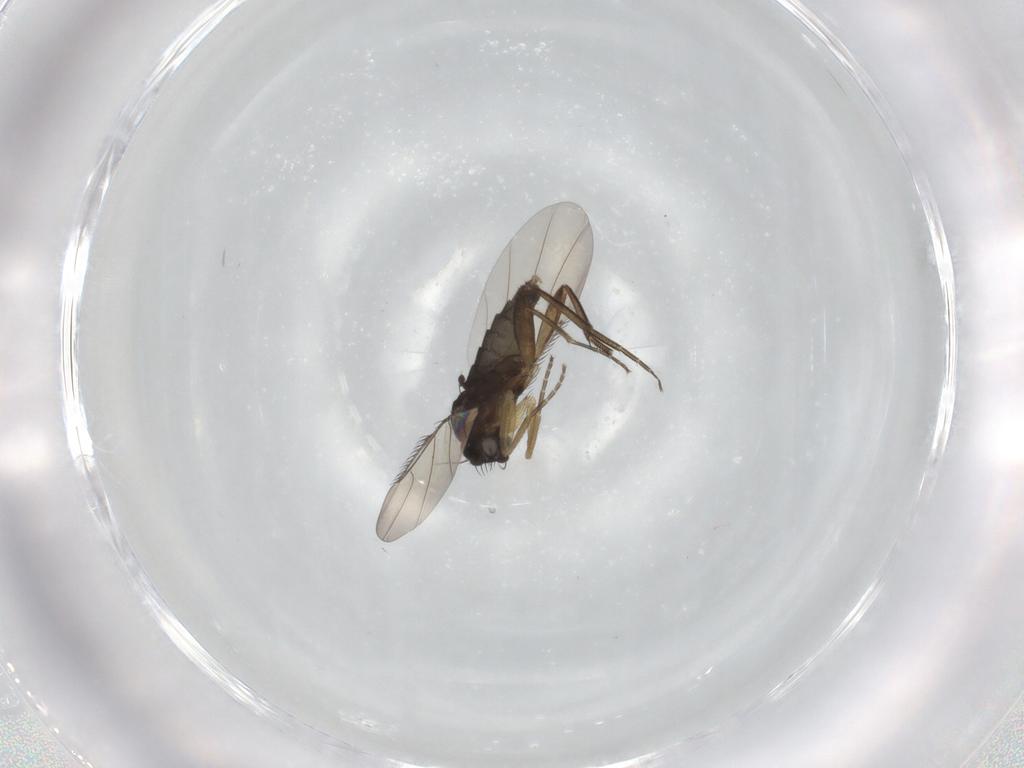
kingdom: Animalia
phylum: Arthropoda
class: Insecta
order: Diptera
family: Phoridae
